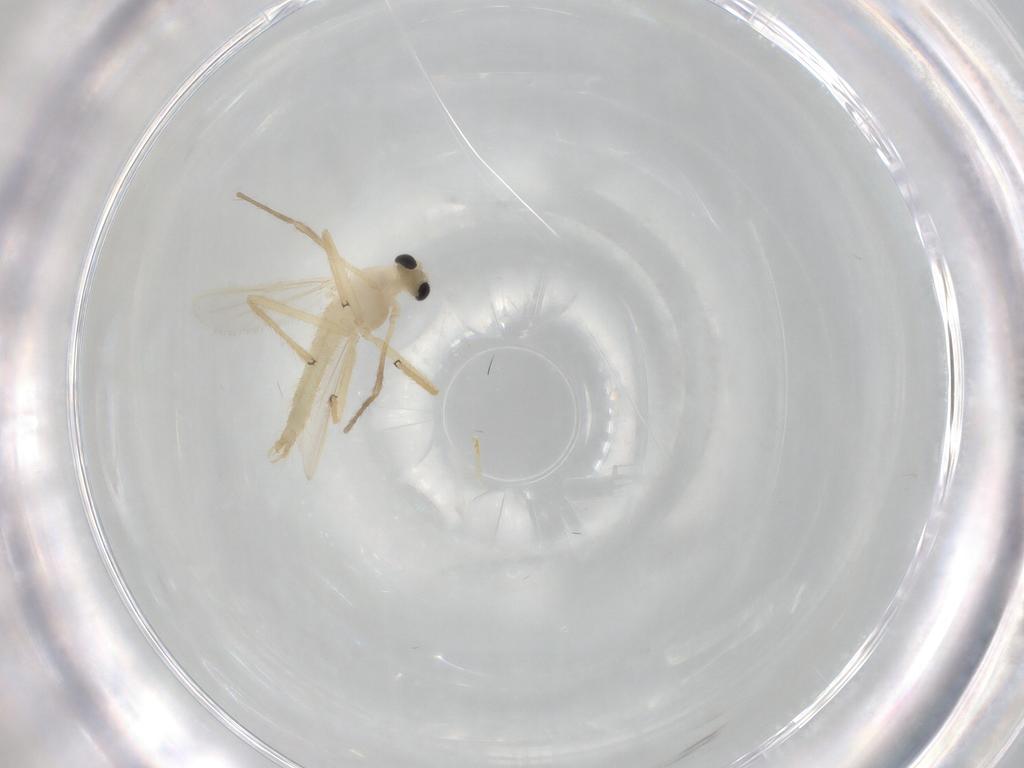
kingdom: Animalia
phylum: Arthropoda
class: Insecta
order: Diptera
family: Chironomidae
